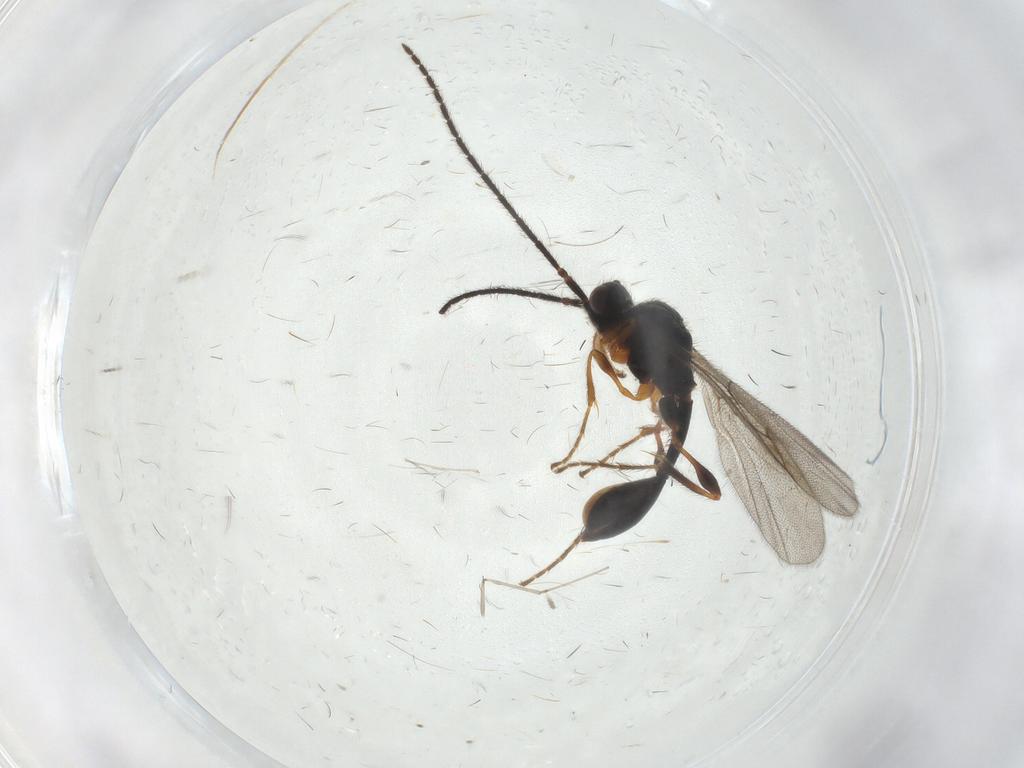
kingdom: Animalia
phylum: Arthropoda
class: Insecta
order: Hymenoptera
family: Diapriidae
